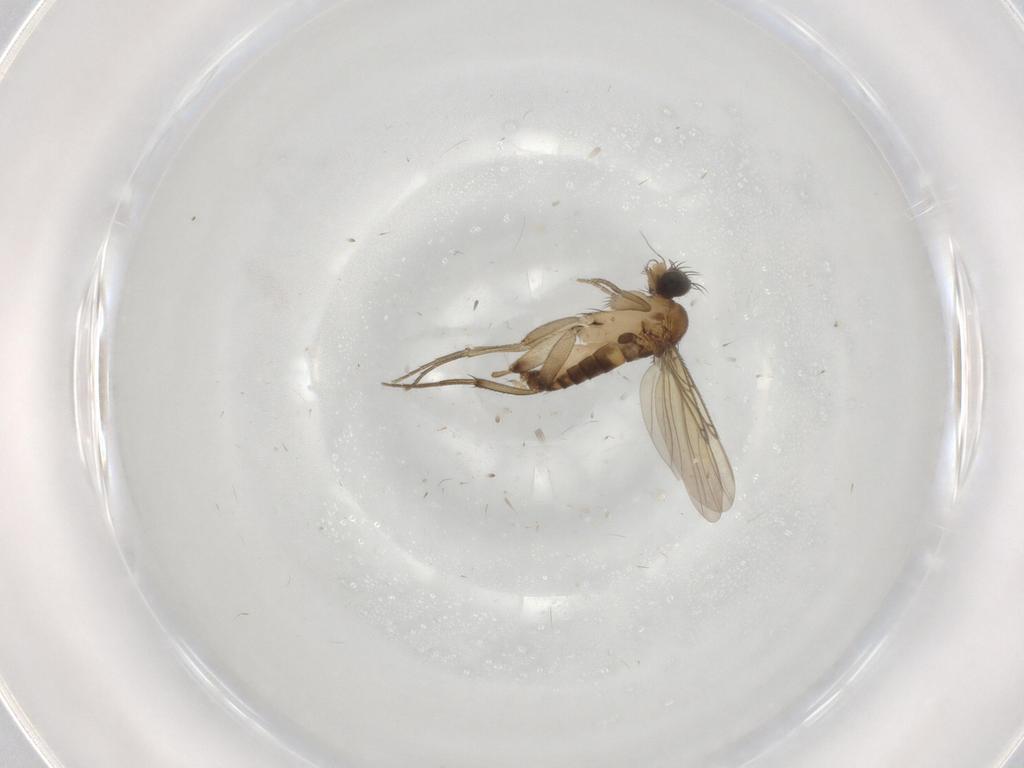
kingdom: Animalia
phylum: Arthropoda
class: Insecta
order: Diptera
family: Phoridae
